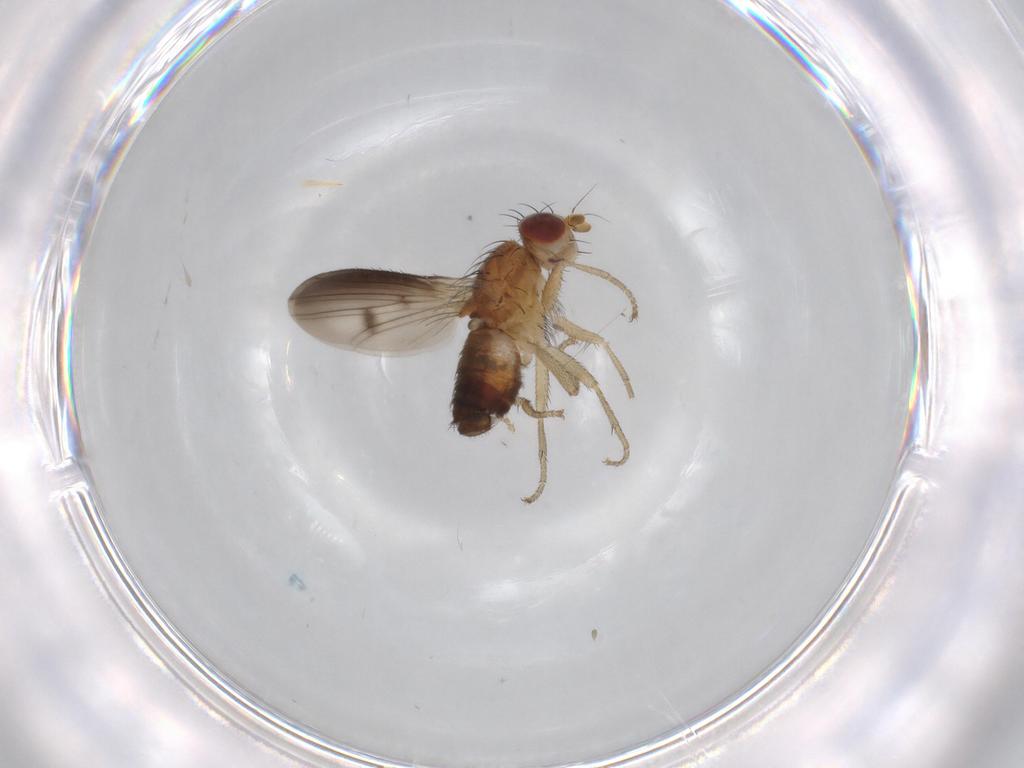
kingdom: Animalia
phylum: Arthropoda
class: Insecta
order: Diptera
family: Heleomyzidae
